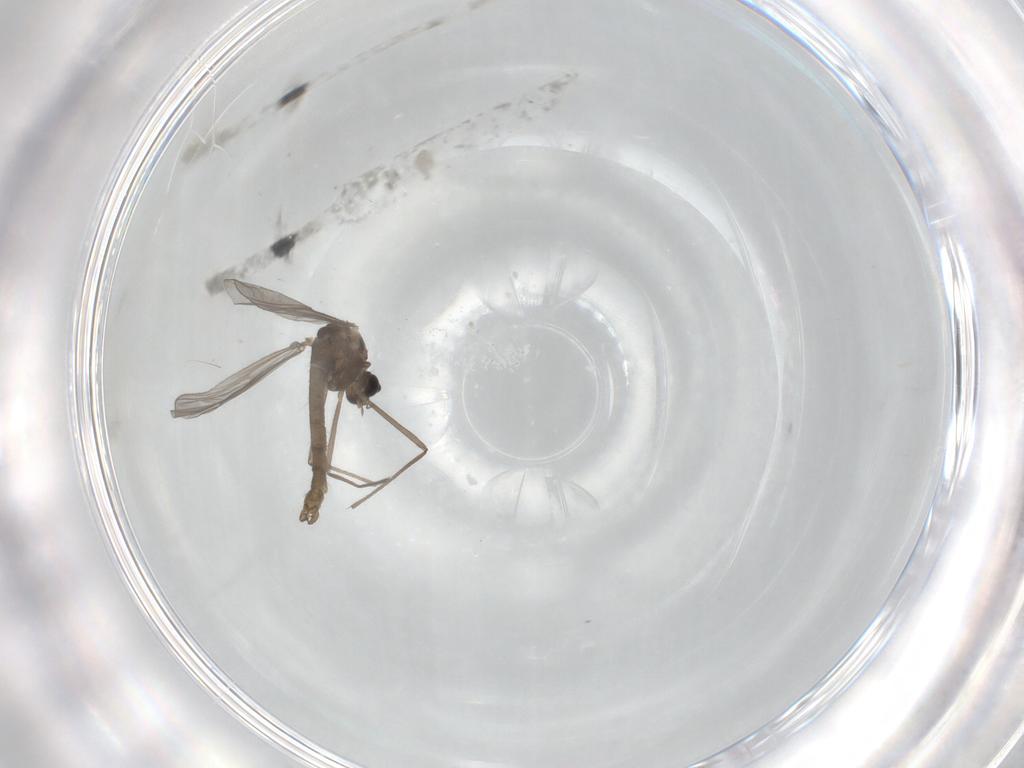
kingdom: Animalia
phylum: Arthropoda
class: Insecta
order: Diptera
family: Chironomidae
